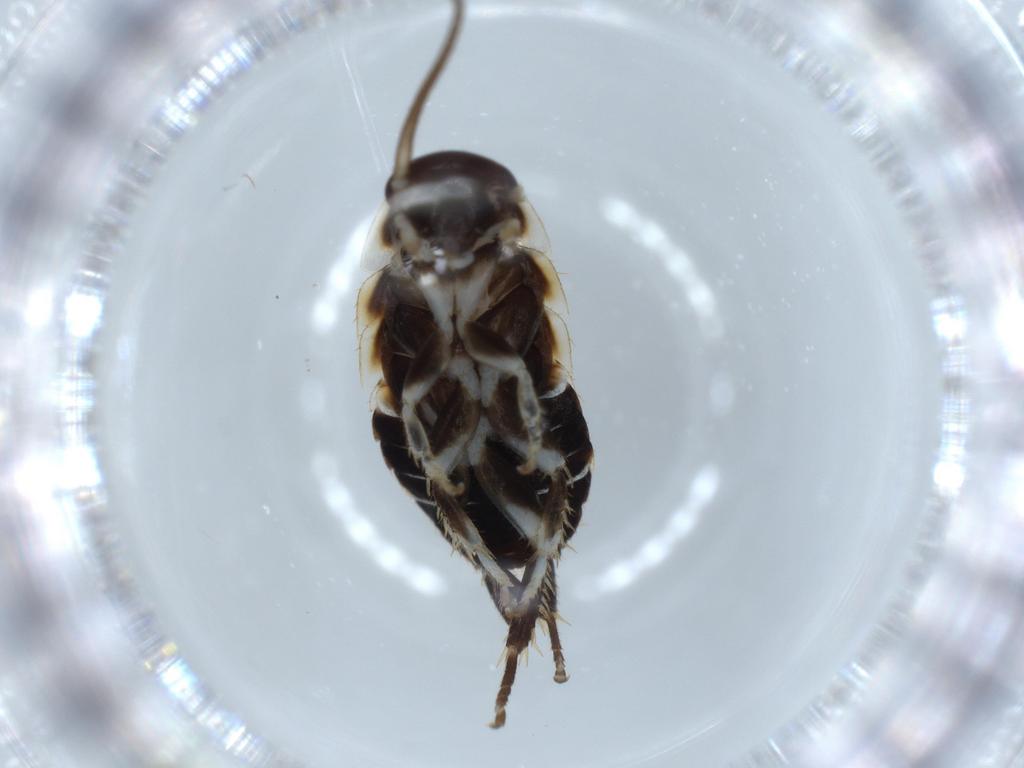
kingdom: Animalia
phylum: Arthropoda
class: Insecta
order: Blattodea
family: Ectobiidae
